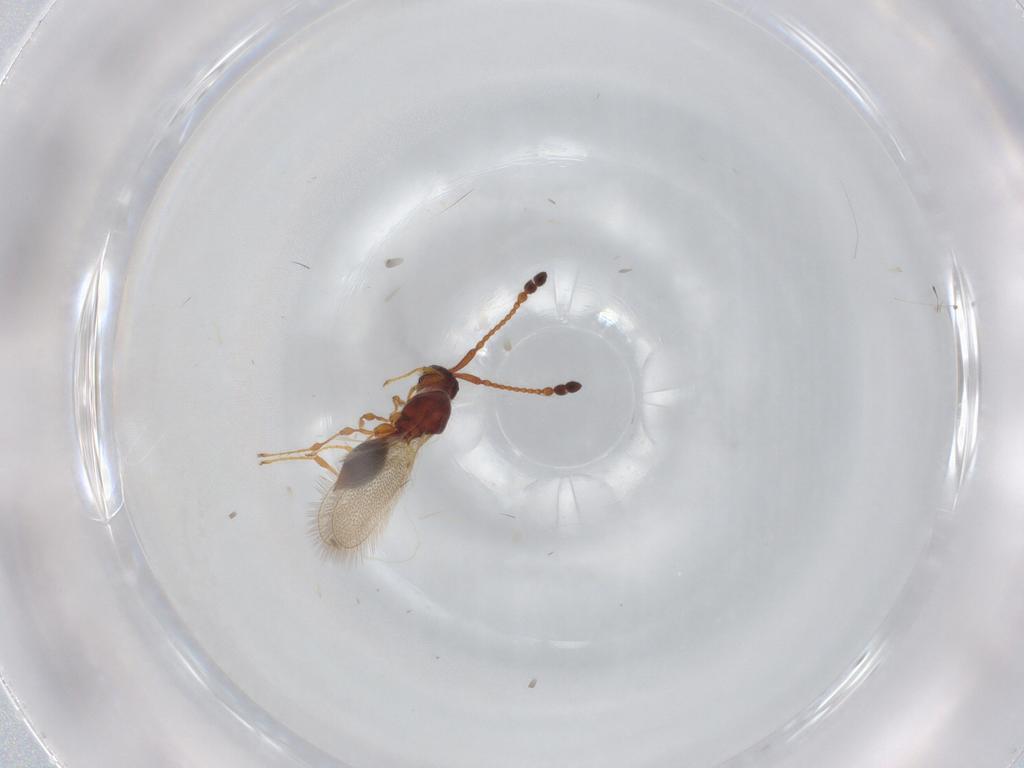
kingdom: Animalia
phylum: Arthropoda
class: Insecta
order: Hymenoptera
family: Diapriidae
